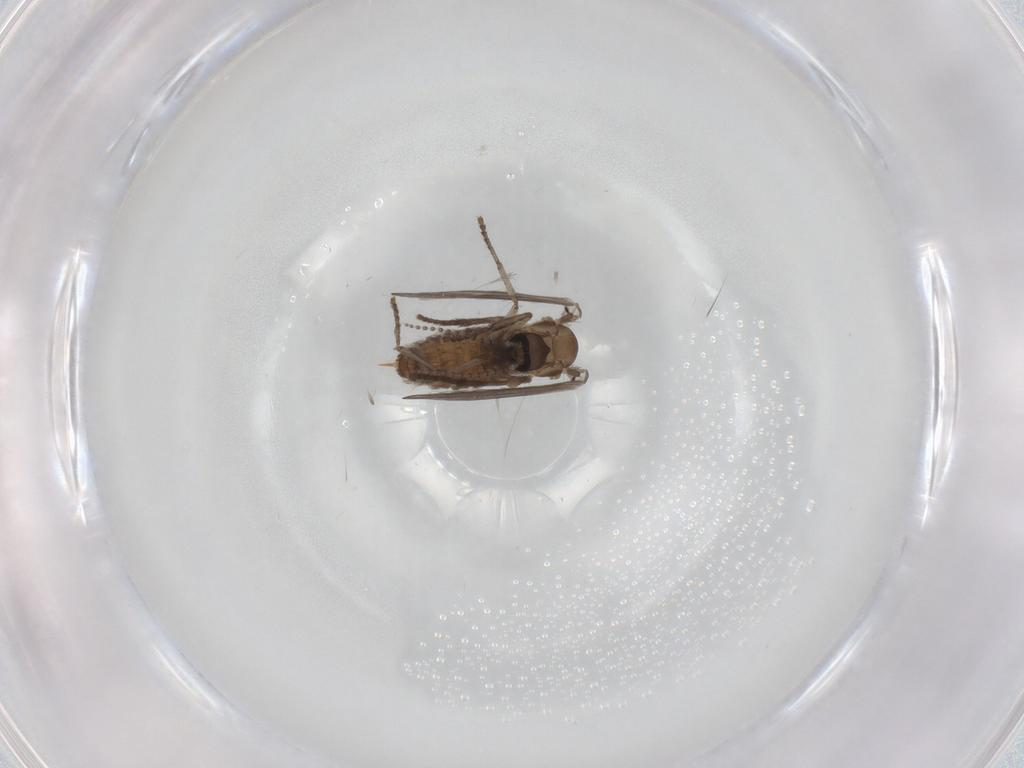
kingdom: Animalia
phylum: Arthropoda
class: Insecta
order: Diptera
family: Psychodidae
